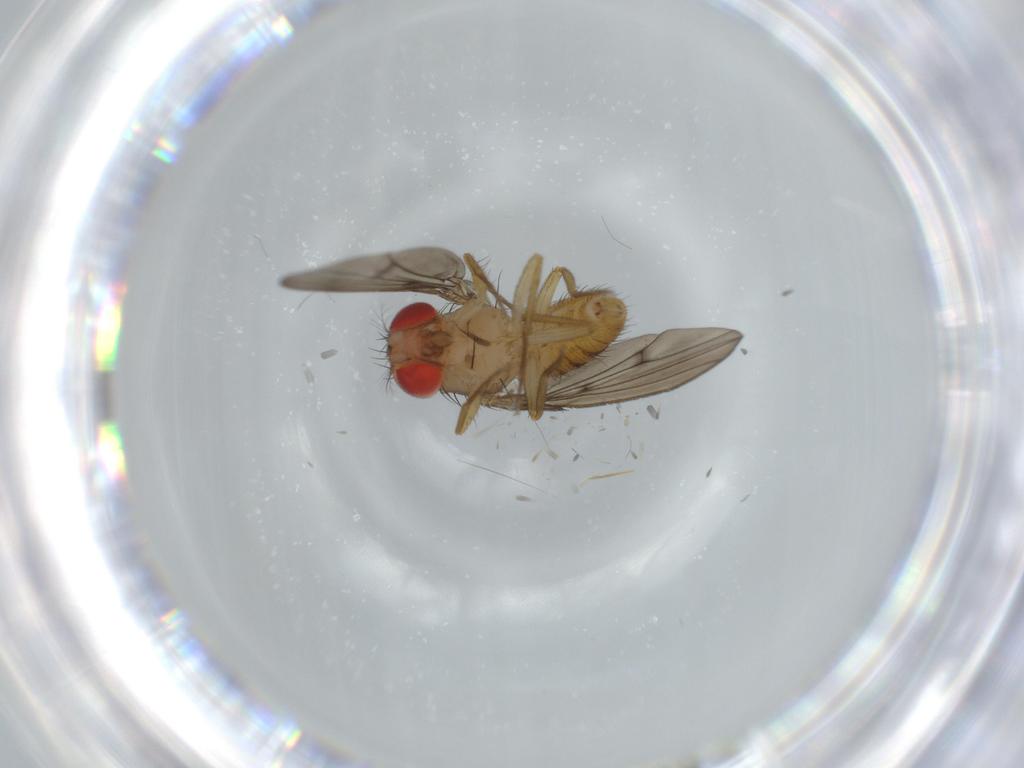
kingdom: Animalia
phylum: Arthropoda
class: Insecta
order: Diptera
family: Drosophilidae
